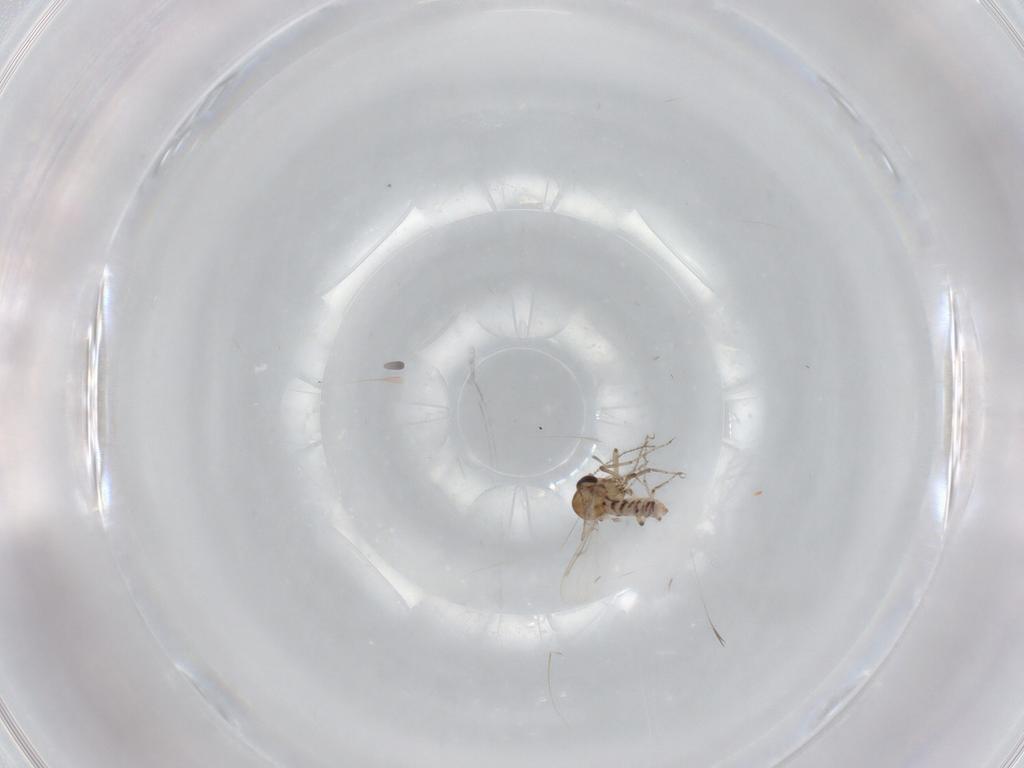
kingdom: Animalia
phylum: Arthropoda
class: Insecta
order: Diptera
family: Ceratopogonidae
